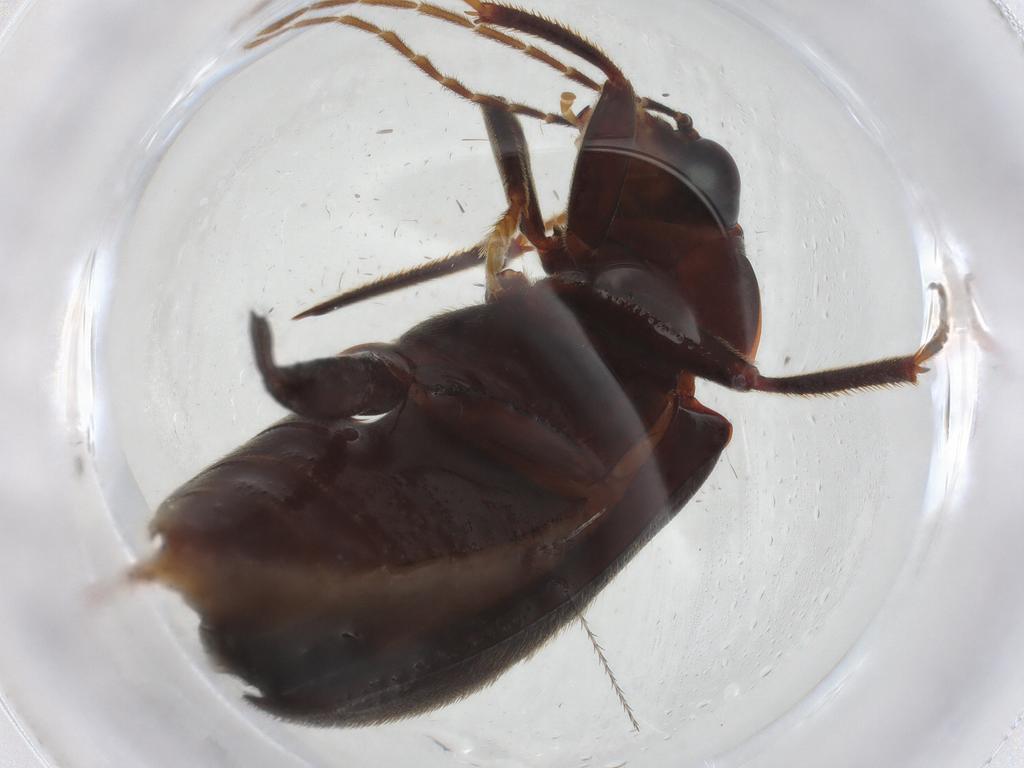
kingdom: Animalia
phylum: Arthropoda
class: Insecta
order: Coleoptera
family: Ptilodactylidae
